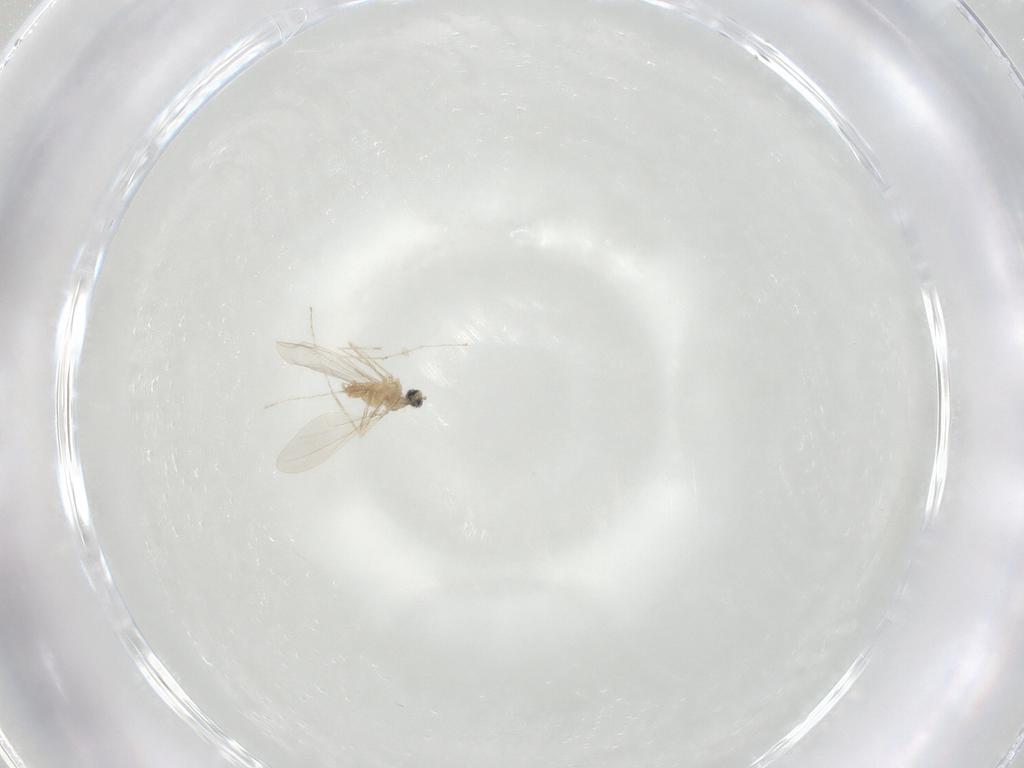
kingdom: Animalia
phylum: Arthropoda
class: Insecta
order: Diptera
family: Cecidomyiidae
